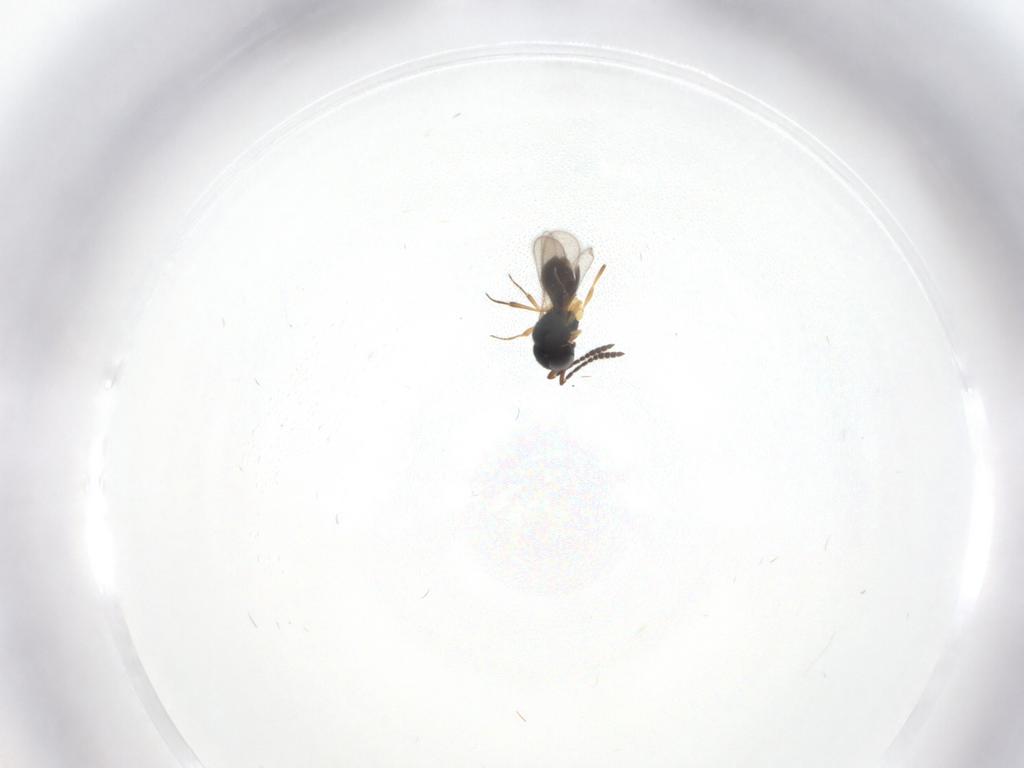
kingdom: Animalia
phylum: Arthropoda
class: Insecta
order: Hymenoptera
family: Scelionidae
